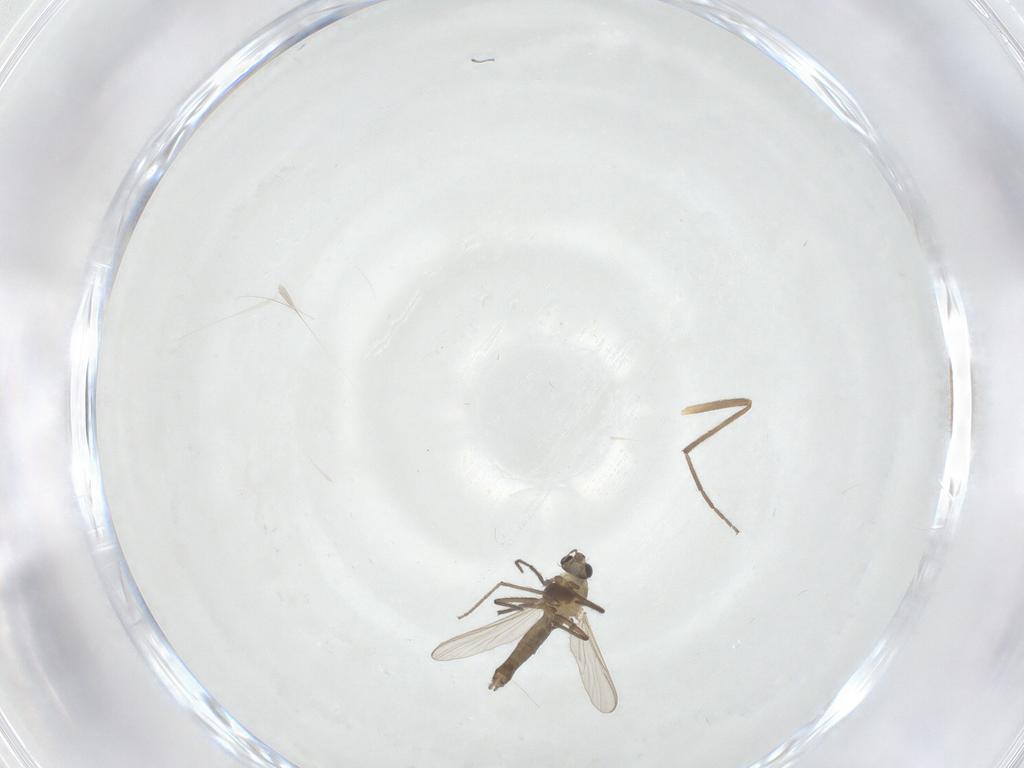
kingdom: Animalia
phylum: Arthropoda
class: Insecta
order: Diptera
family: Chironomidae
